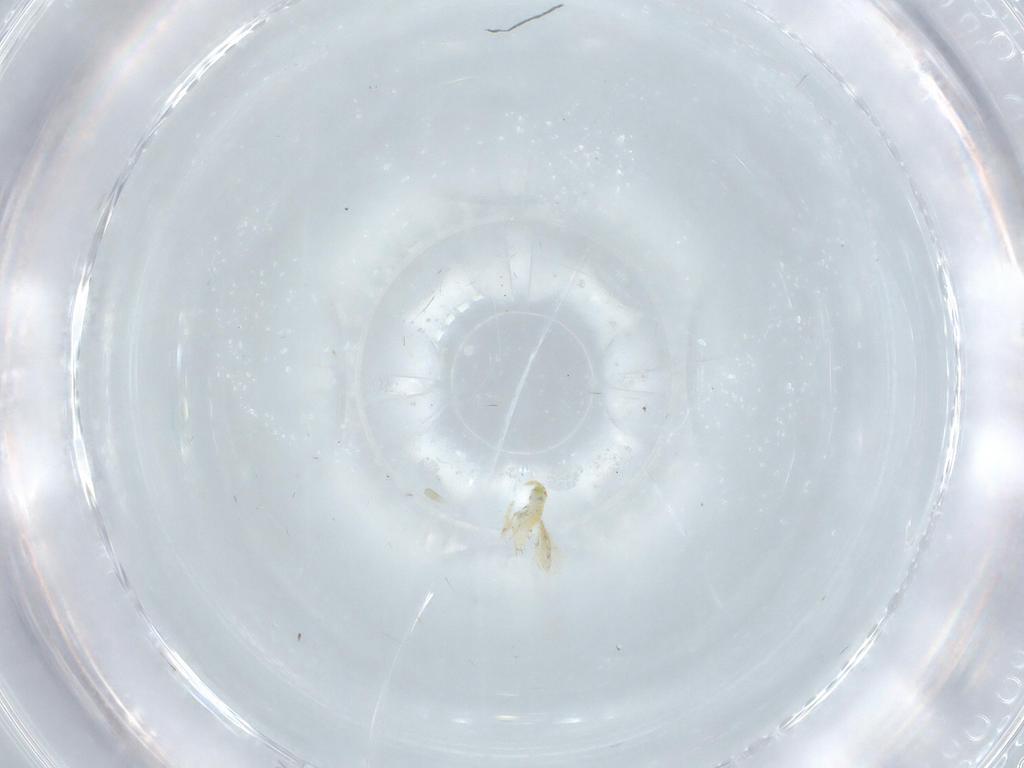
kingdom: Animalia
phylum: Arthropoda
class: Insecta
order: Hymenoptera
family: Aphelinidae
